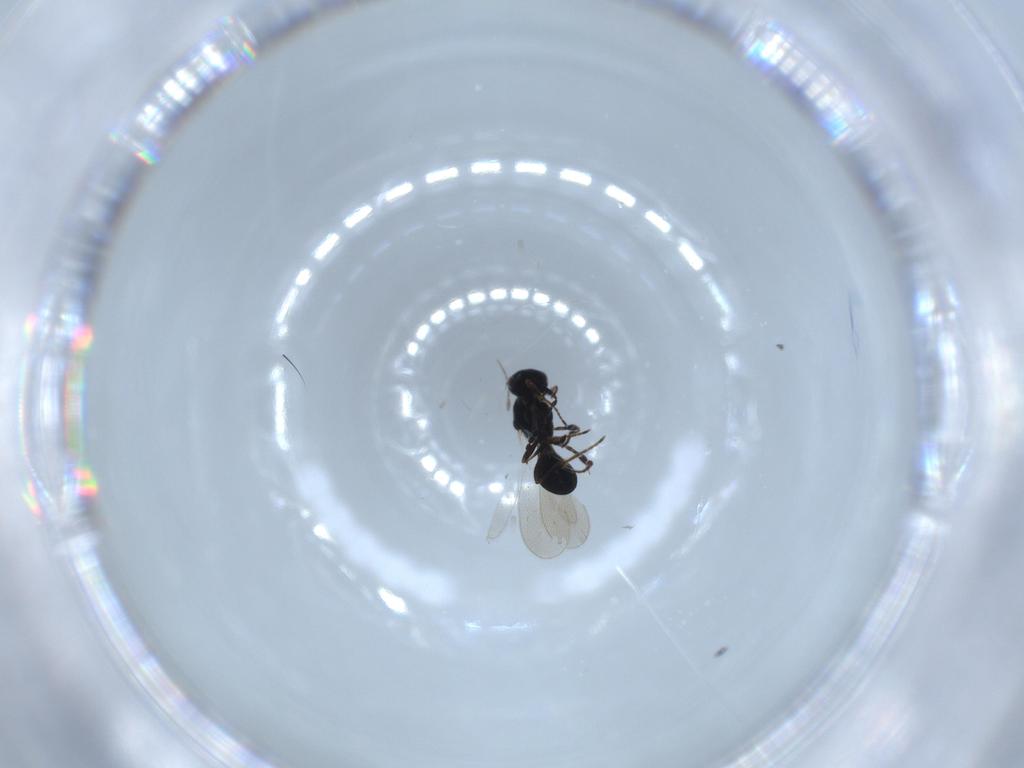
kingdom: Animalia
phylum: Arthropoda
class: Insecta
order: Hymenoptera
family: Platygastridae
